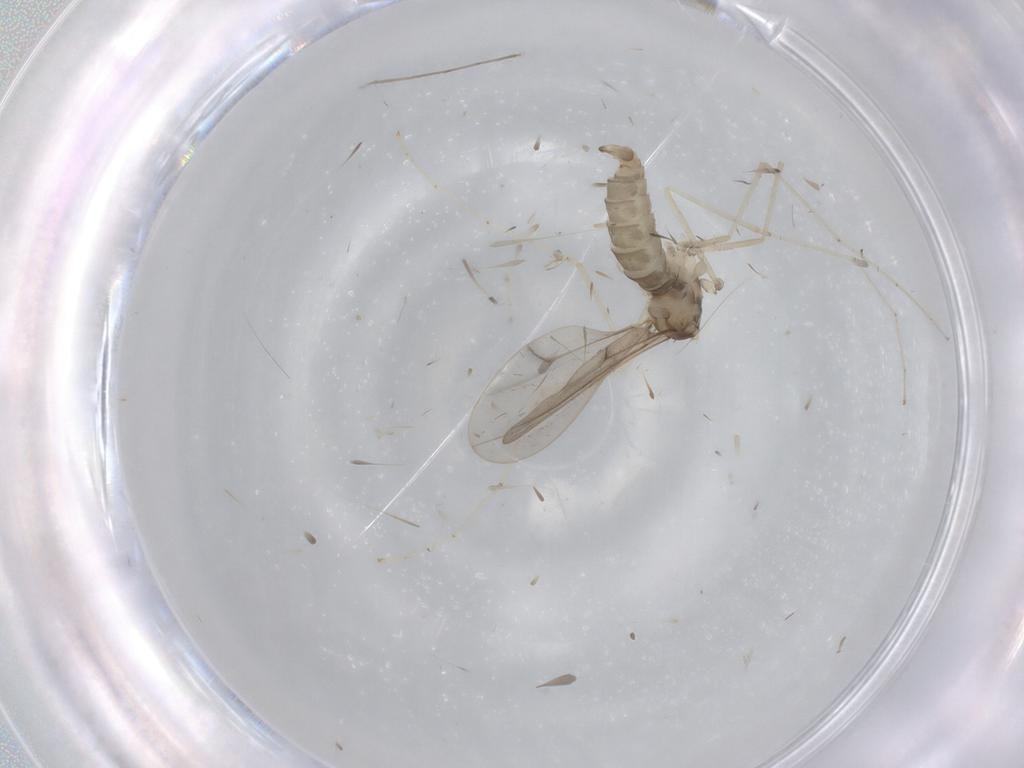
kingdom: Animalia
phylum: Arthropoda
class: Insecta
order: Diptera
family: Cecidomyiidae
